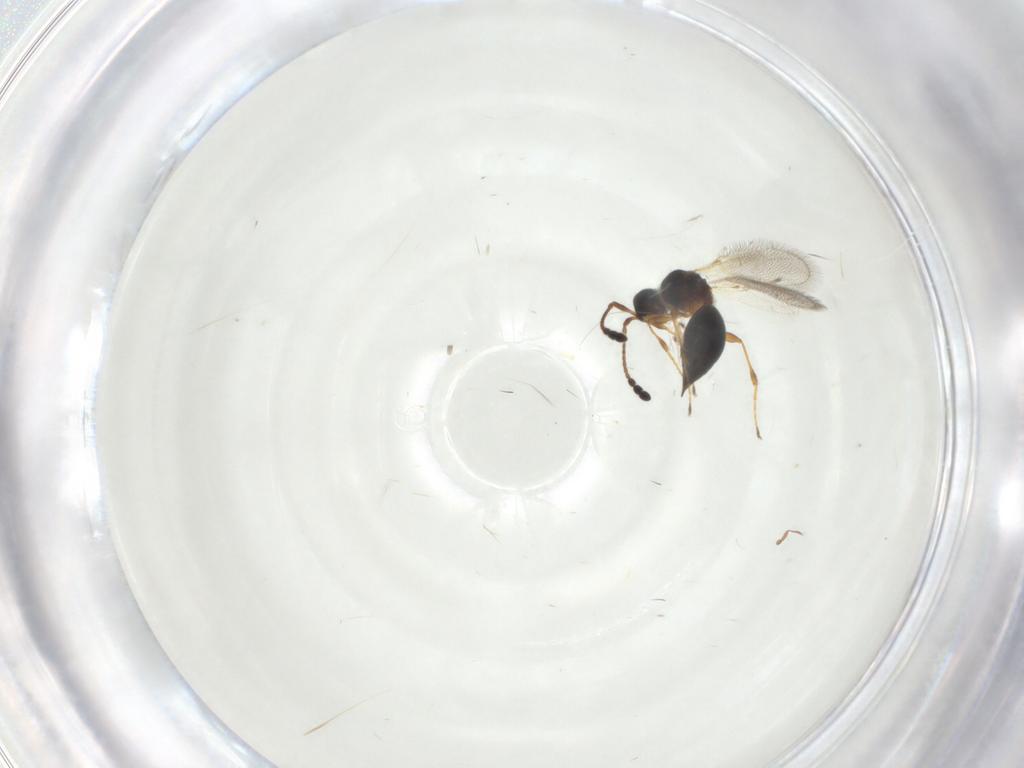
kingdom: Animalia
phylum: Arthropoda
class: Insecta
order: Hymenoptera
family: Diapriidae
